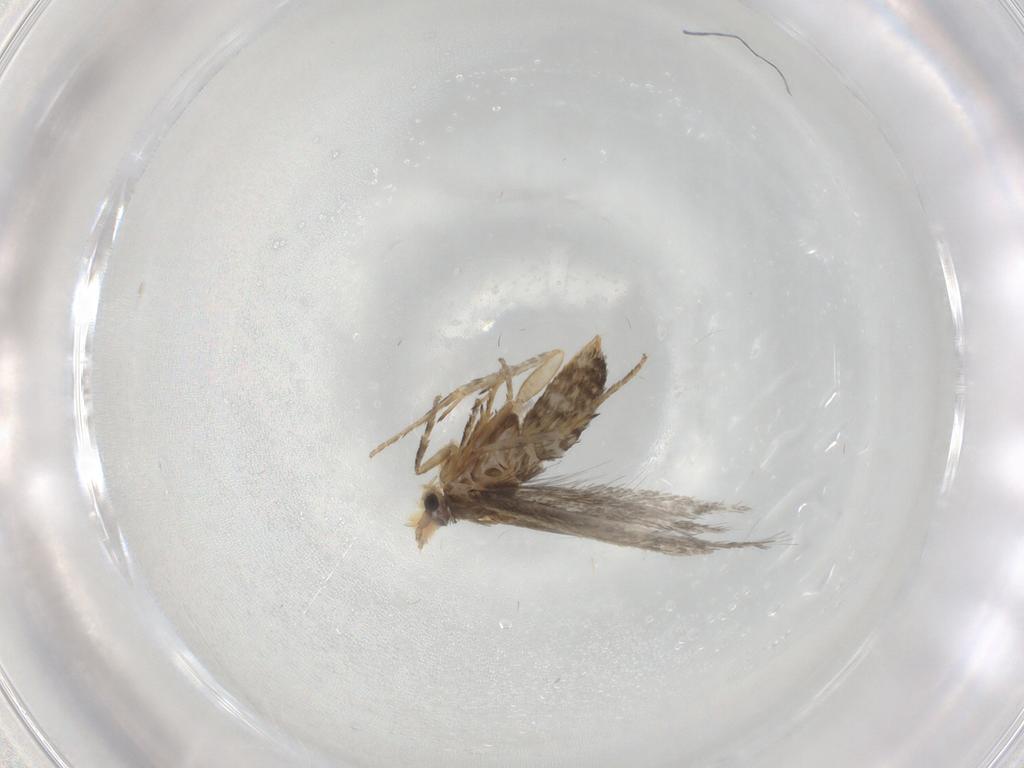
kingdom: Animalia
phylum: Arthropoda
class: Insecta
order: Lepidoptera
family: Nepticulidae
